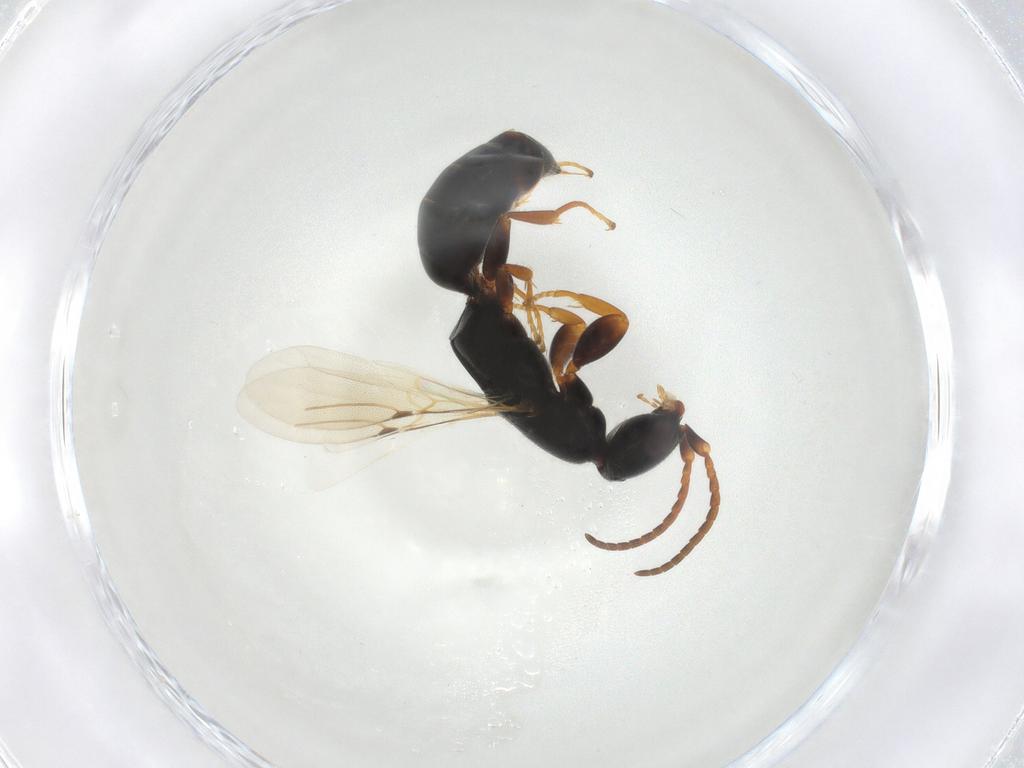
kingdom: Animalia
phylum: Arthropoda
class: Insecta
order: Hymenoptera
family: Bethylidae
